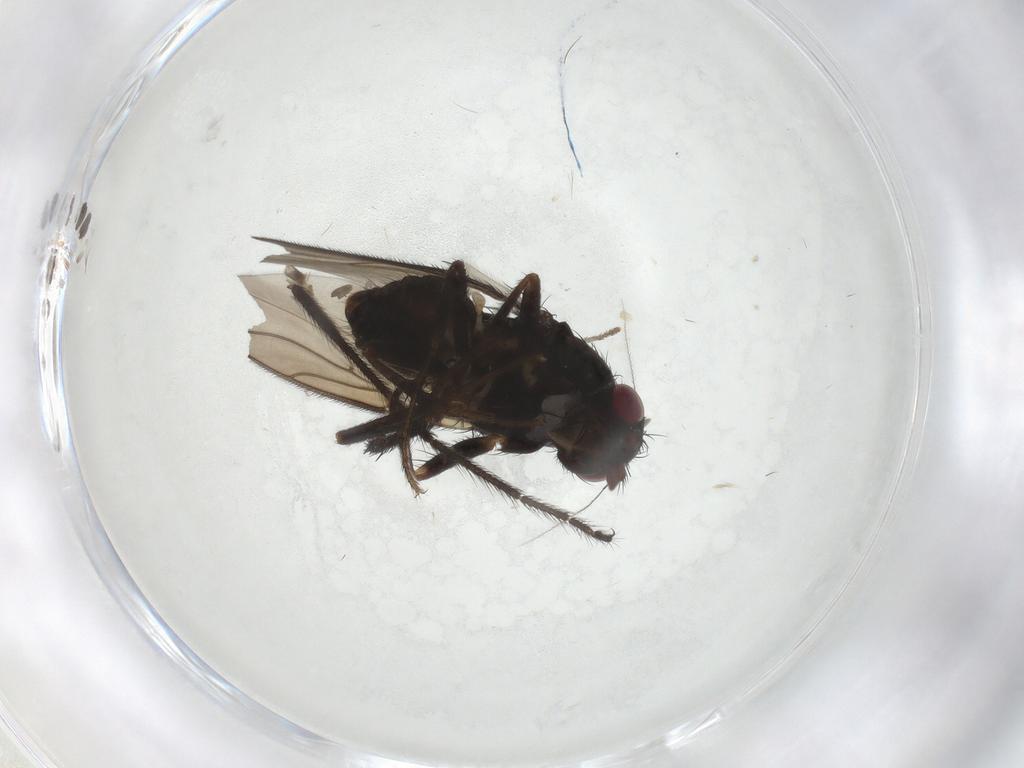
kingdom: Animalia
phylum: Arthropoda
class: Insecta
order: Diptera
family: Sphaeroceridae
